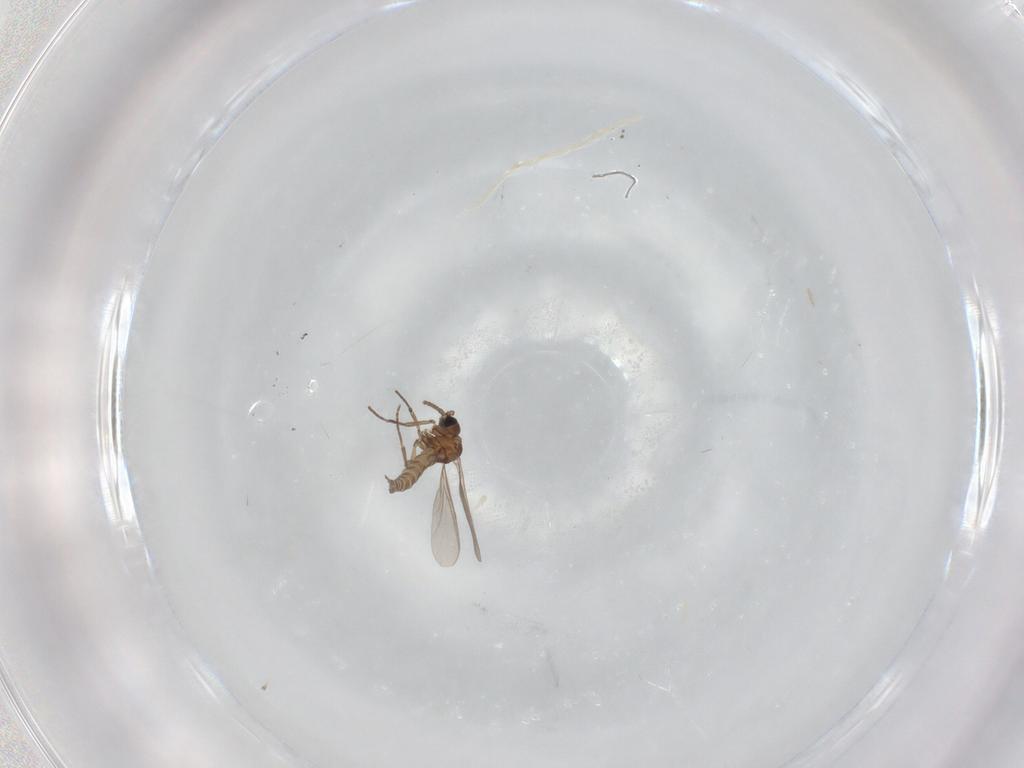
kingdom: Animalia
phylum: Arthropoda
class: Insecta
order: Diptera
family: Sciaridae
